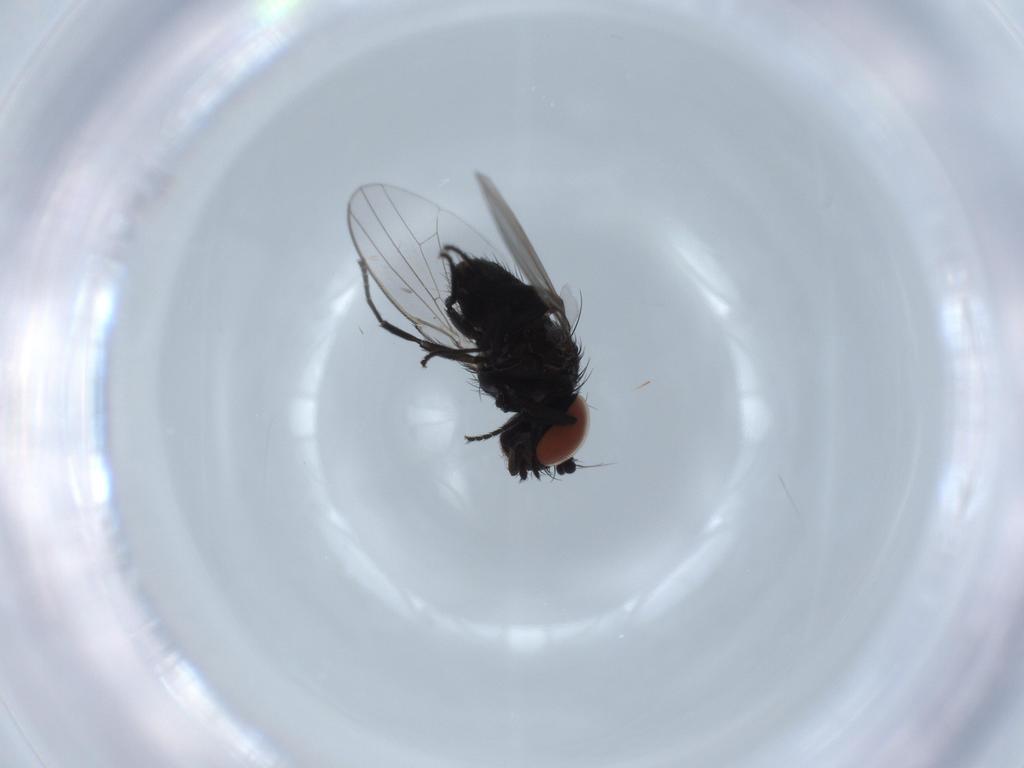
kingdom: Animalia
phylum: Arthropoda
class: Insecta
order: Diptera
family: Milichiidae
